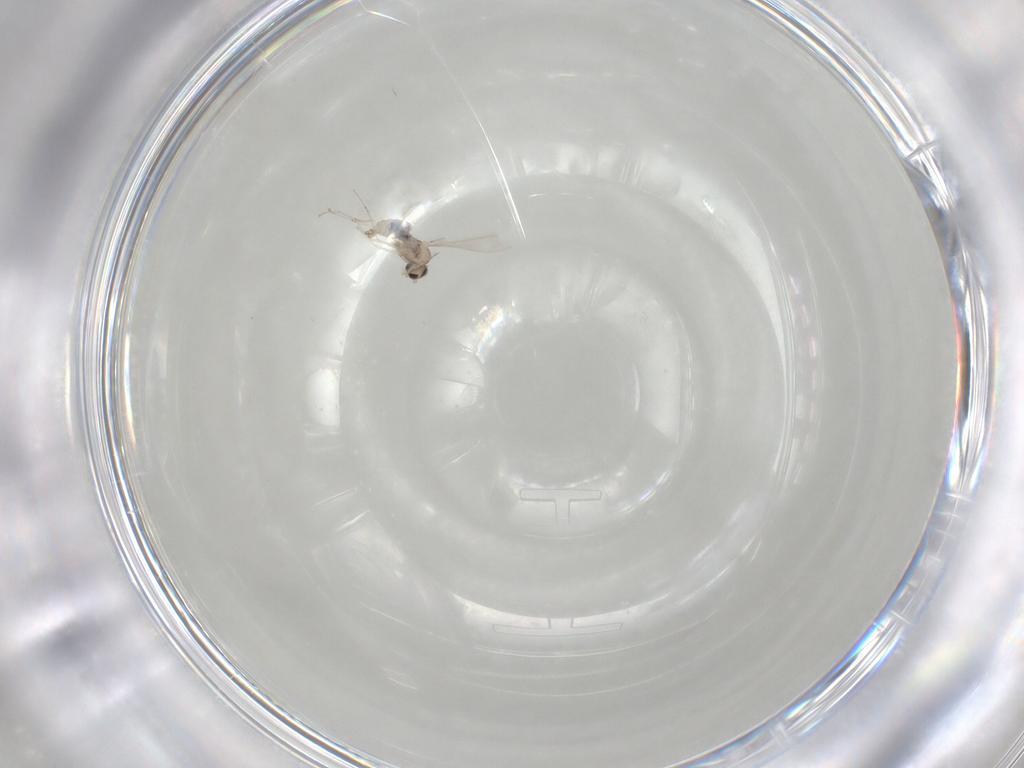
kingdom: Animalia
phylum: Arthropoda
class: Insecta
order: Diptera
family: Cecidomyiidae
